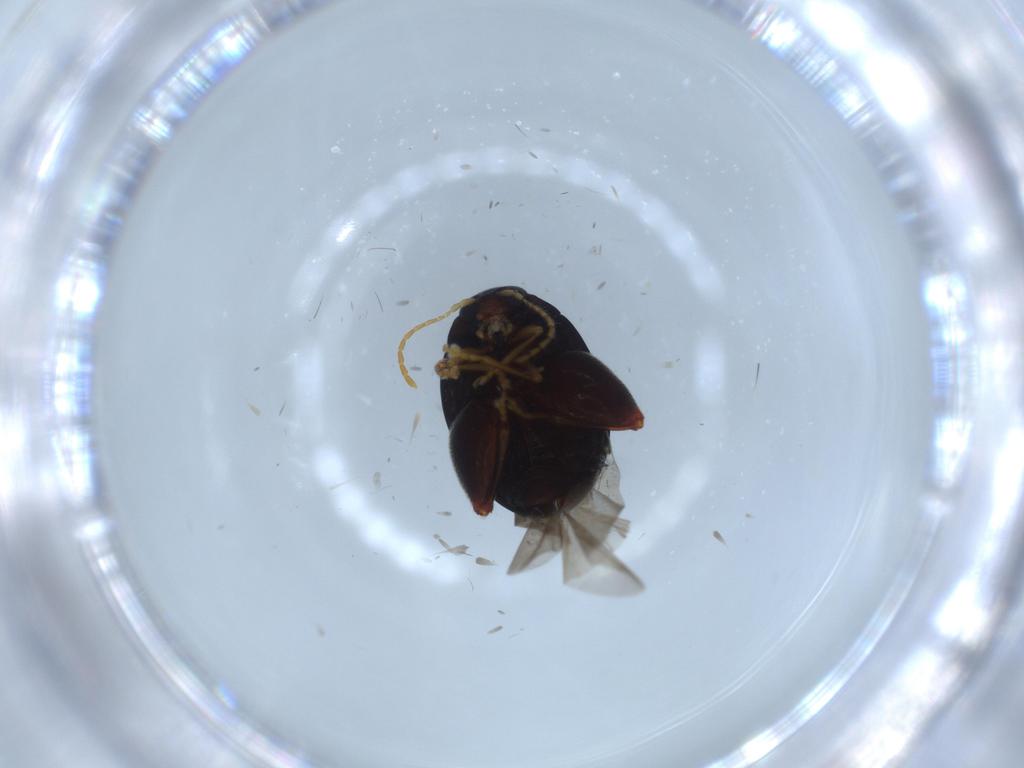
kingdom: Animalia
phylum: Arthropoda
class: Insecta
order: Coleoptera
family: Chrysomelidae
